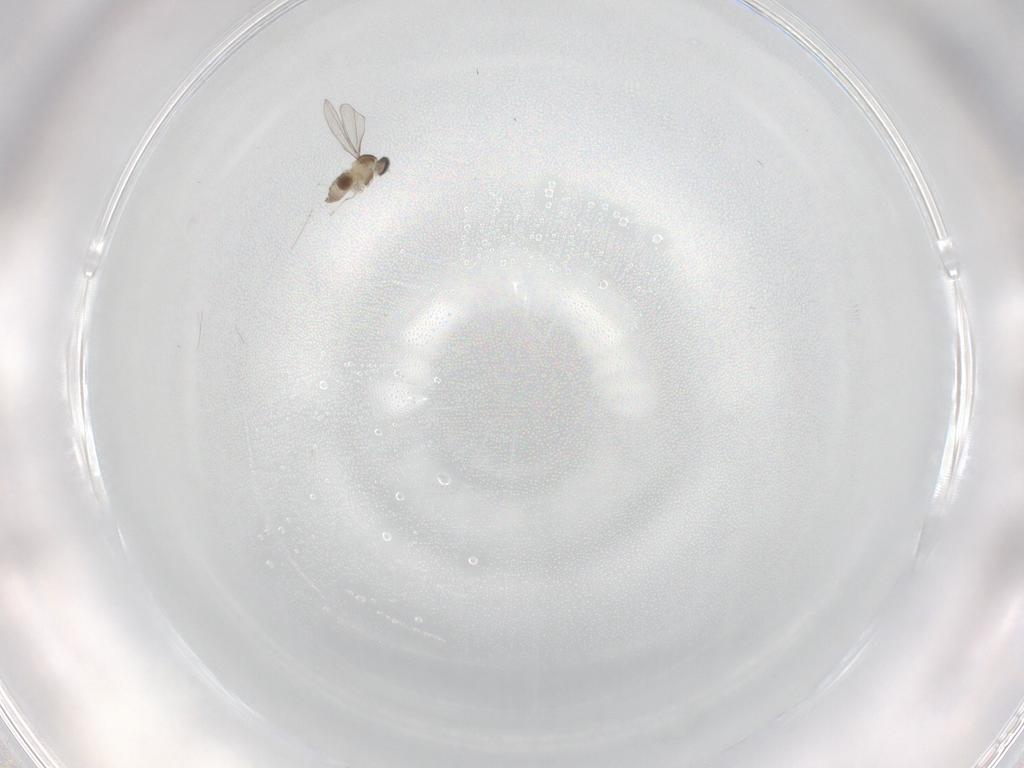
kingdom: Animalia
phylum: Arthropoda
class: Insecta
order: Diptera
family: Cecidomyiidae
